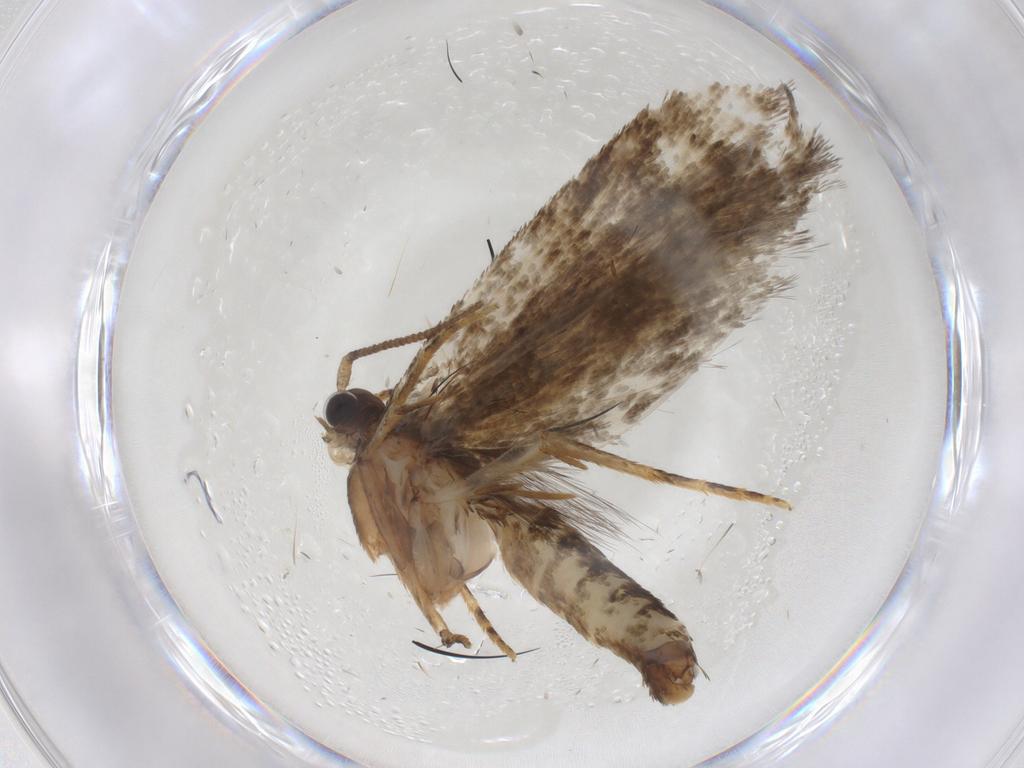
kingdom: Animalia
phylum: Arthropoda
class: Insecta
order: Lepidoptera
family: Crambidae
